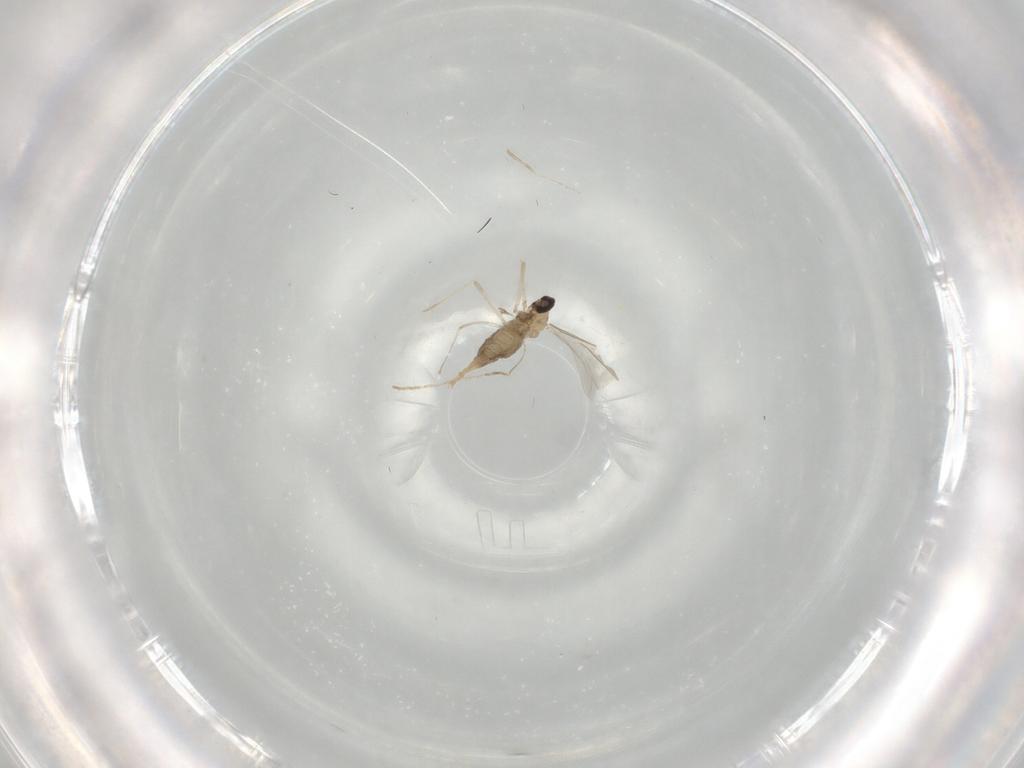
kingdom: Animalia
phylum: Arthropoda
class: Insecta
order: Diptera
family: Cecidomyiidae
